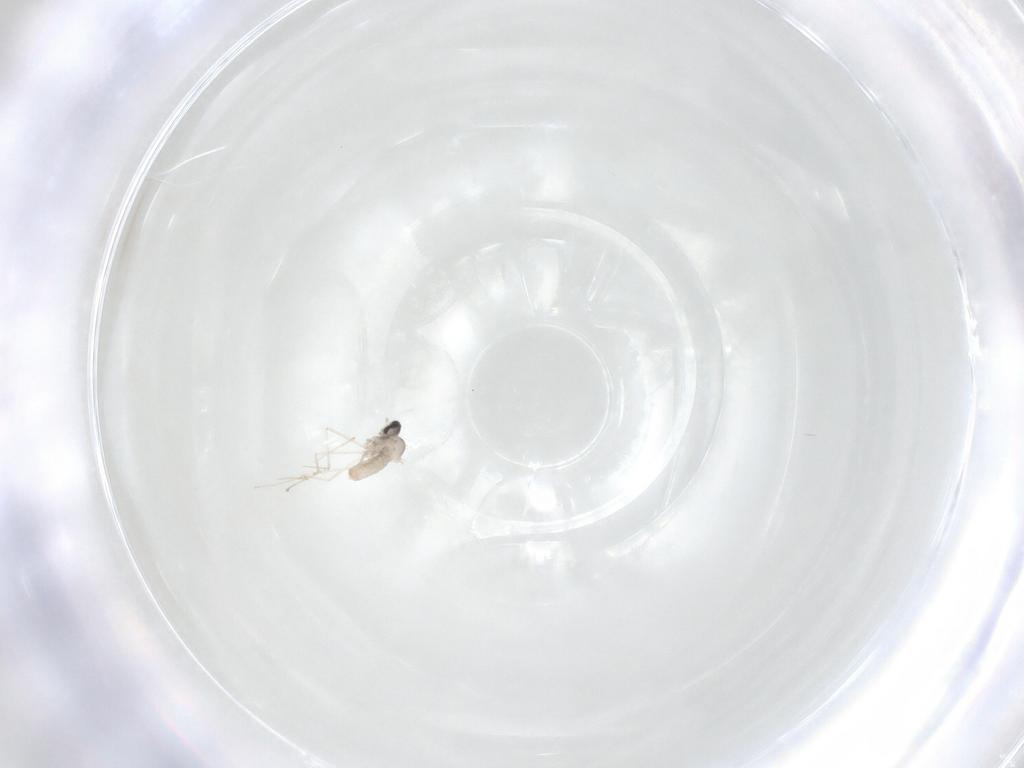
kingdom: Animalia
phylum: Arthropoda
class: Insecta
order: Diptera
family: Cecidomyiidae
